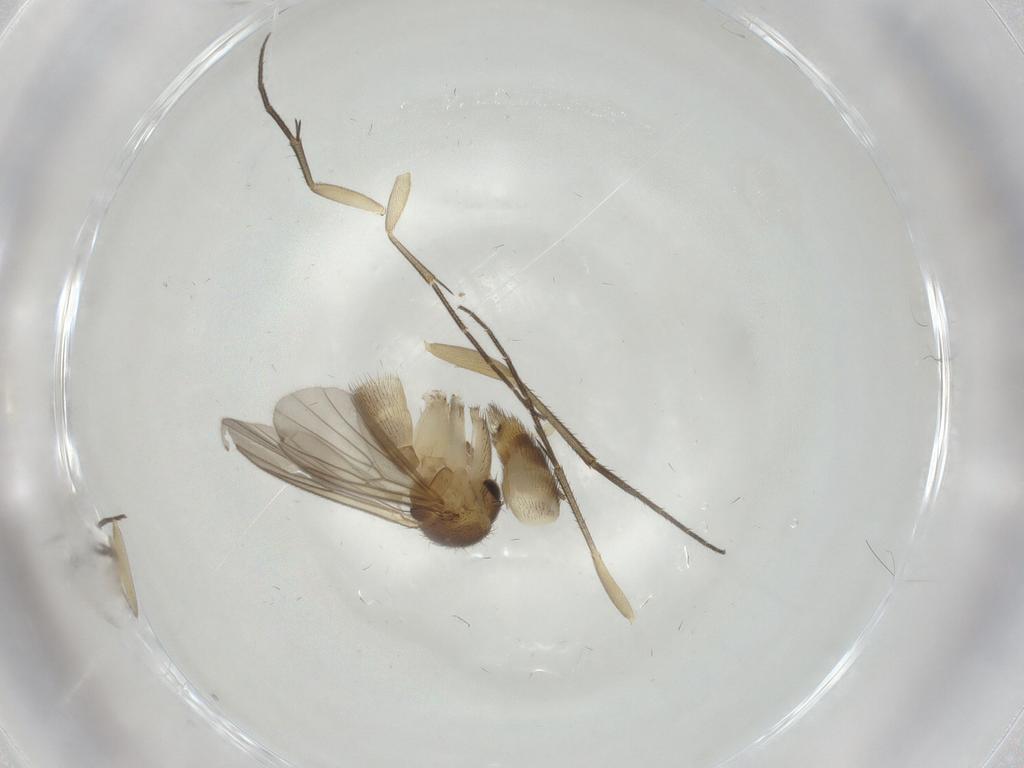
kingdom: Animalia
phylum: Arthropoda
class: Insecta
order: Diptera
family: Mycetophilidae
